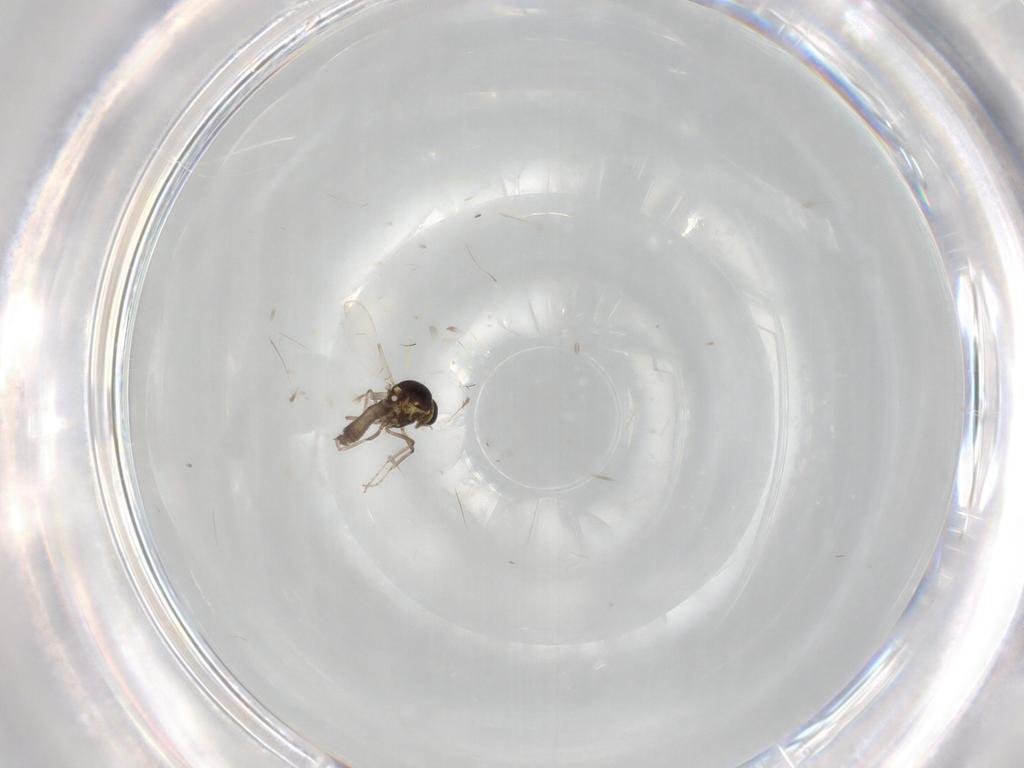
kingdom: Animalia
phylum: Arthropoda
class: Insecta
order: Diptera
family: Ceratopogonidae
